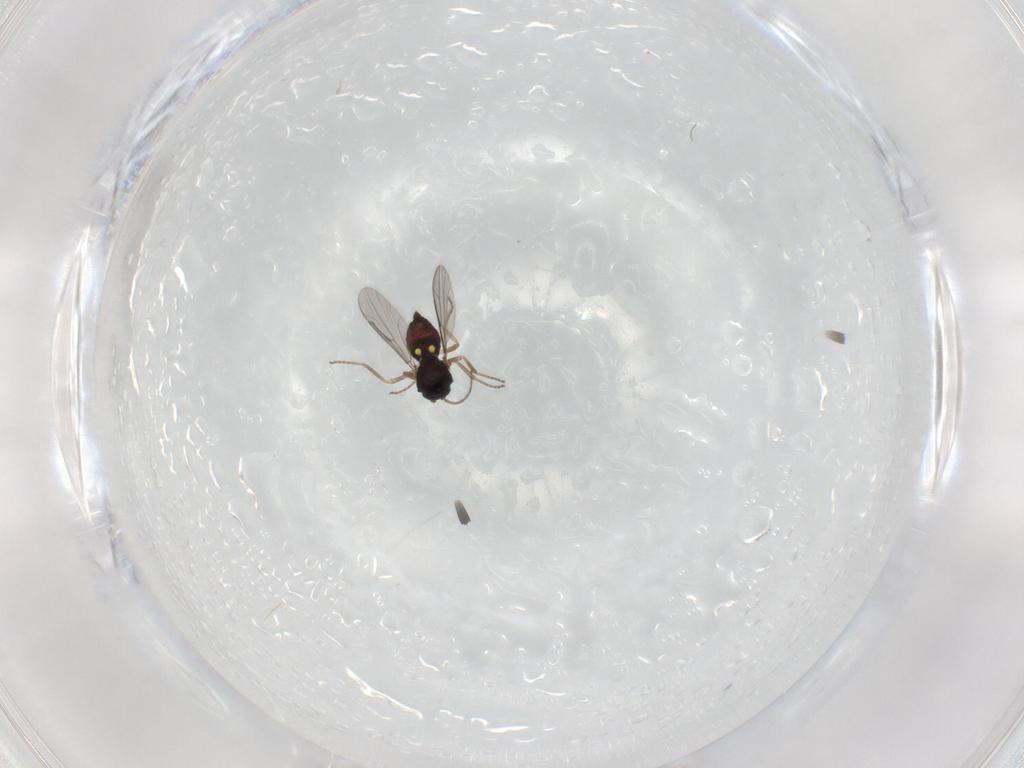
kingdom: Animalia
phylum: Arthropoda
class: Insecta
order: Diptera
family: Ceratopogonidae
